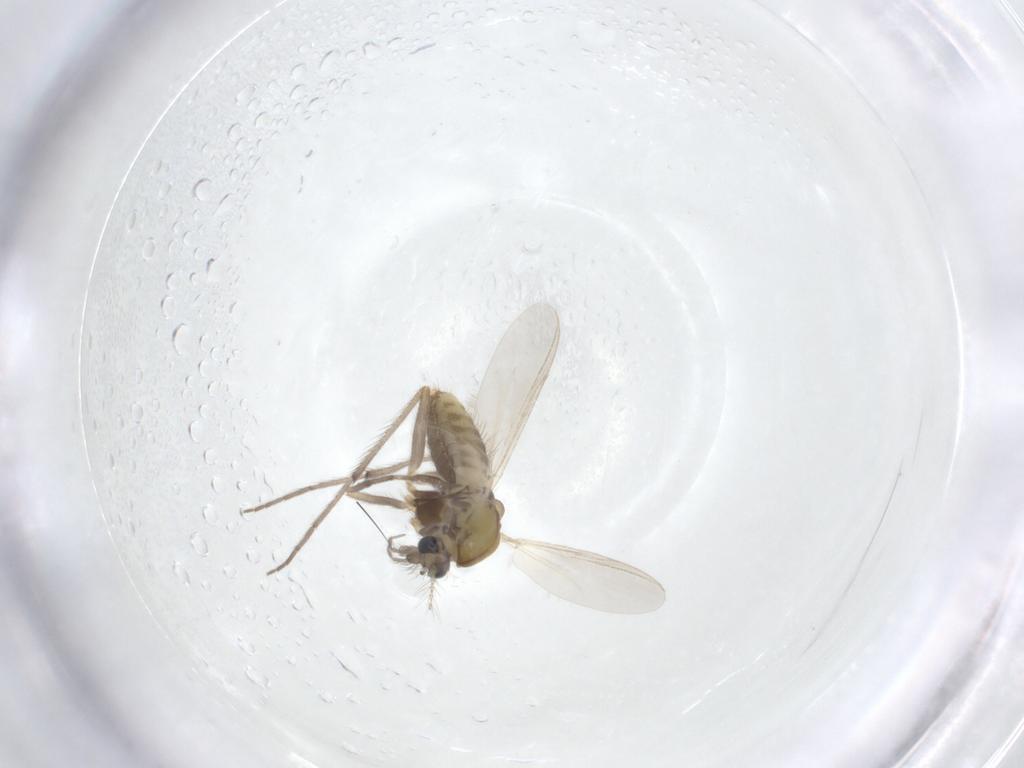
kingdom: Animalia
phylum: Arthropoda
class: Insecta
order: Diptera
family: Chironomidae
